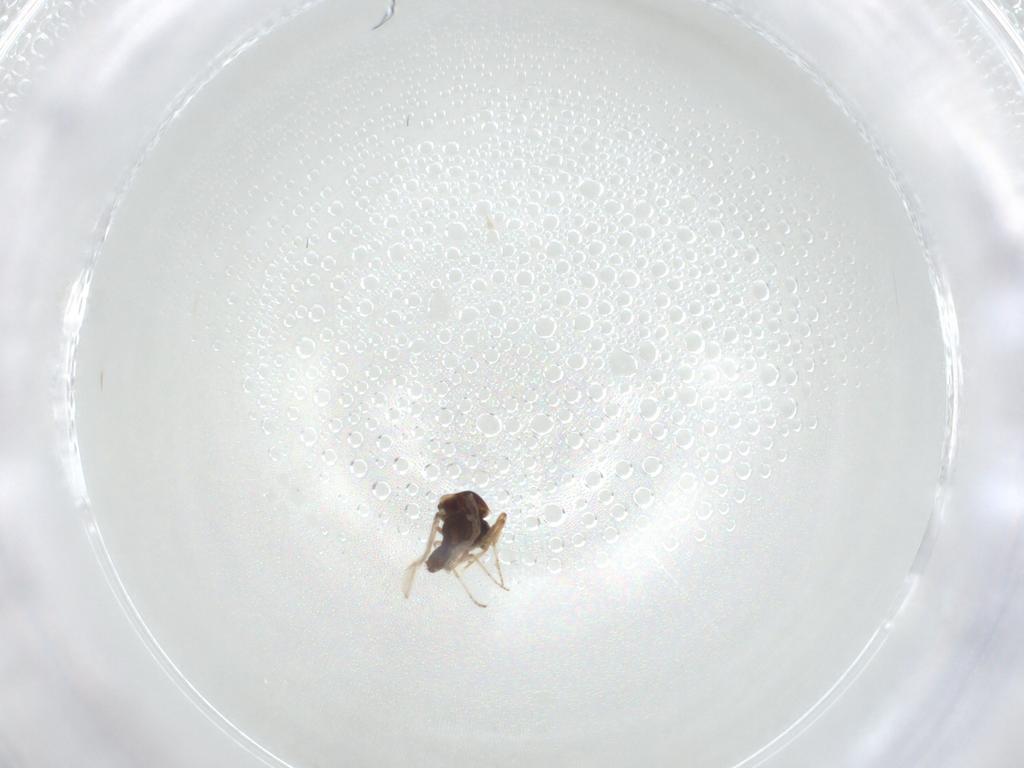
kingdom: Animalia
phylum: Arthropoda
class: Insecta
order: Diptera
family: Cecidomyiidae
